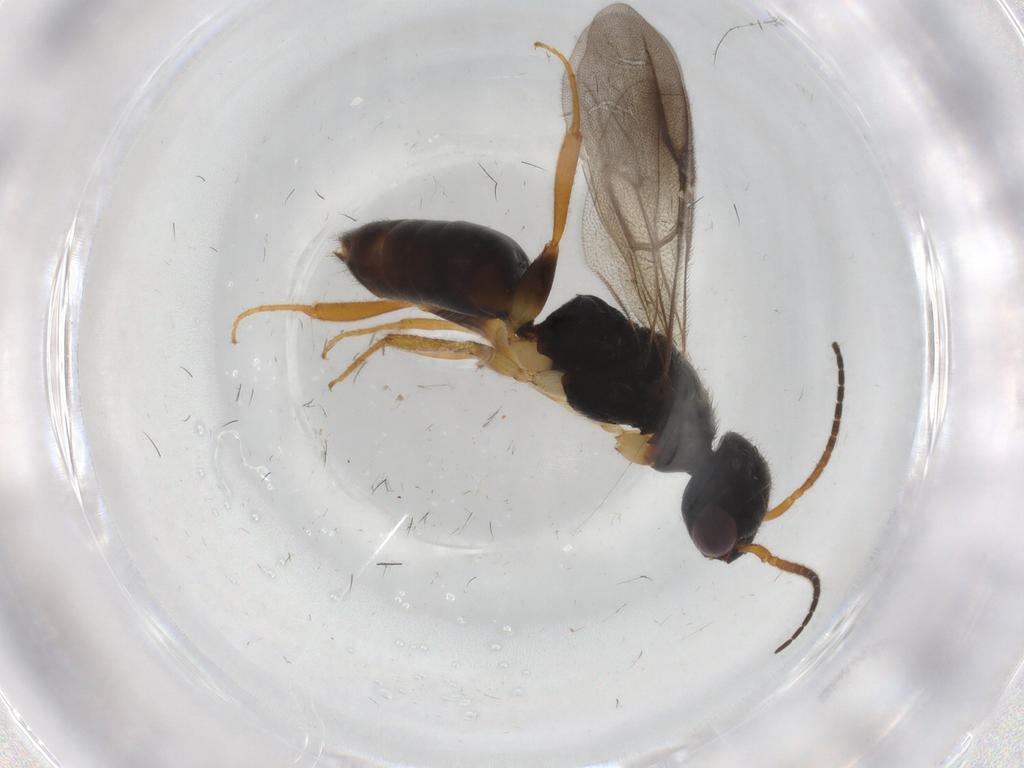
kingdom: Animalia
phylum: Arthropoda
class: Insecta
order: Hymenoptera
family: Bethylidae
